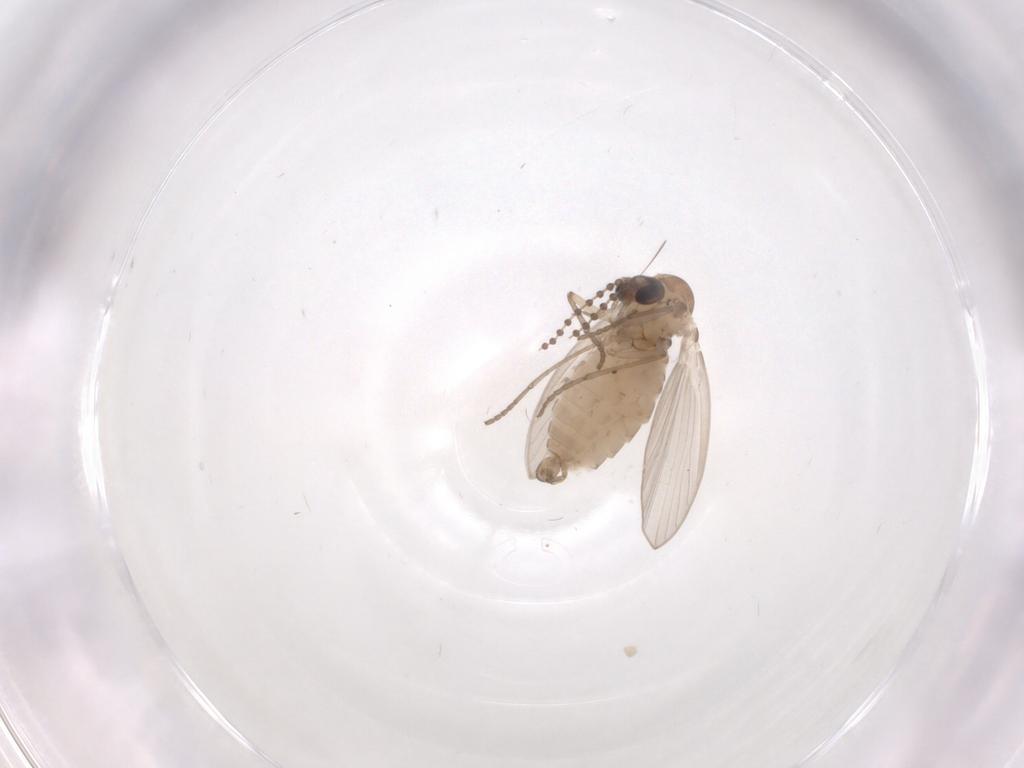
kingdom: Animalia
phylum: Arthropoda
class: Insecta
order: Diptera
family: Psychodidae
